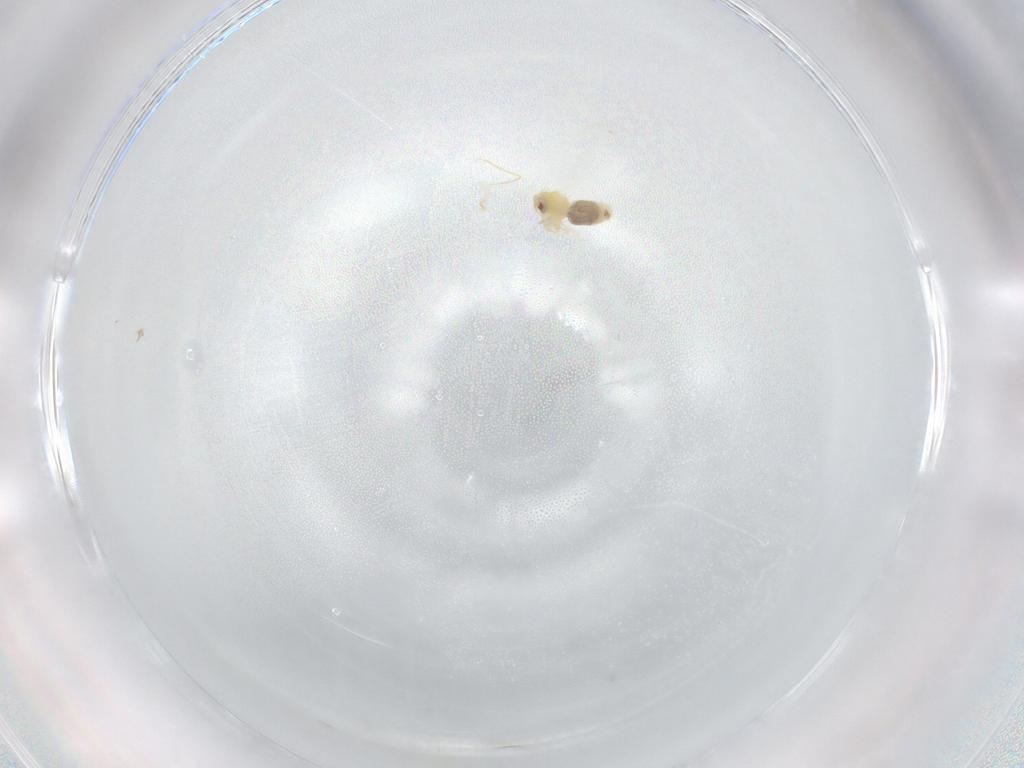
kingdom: Animalia
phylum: Arthropoda
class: Insecta
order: Hemiptera
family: Aleyrodidae
